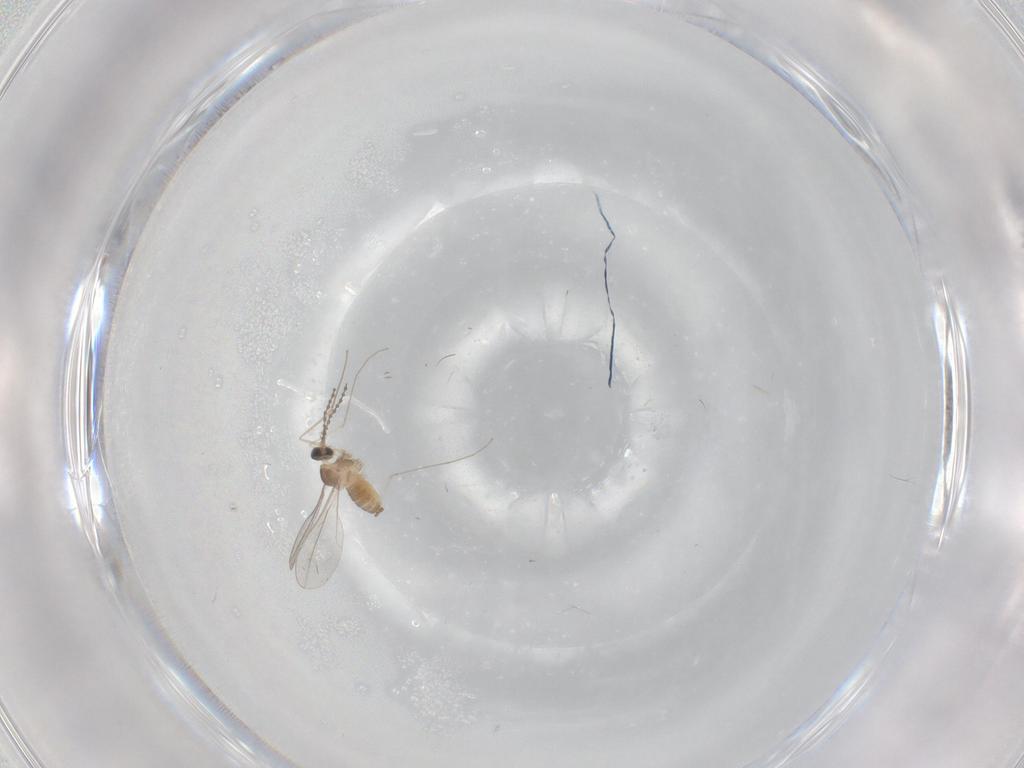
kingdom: Animalia
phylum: Arthropoda
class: Insecta
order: Diptera
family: Cecidomyiidae
